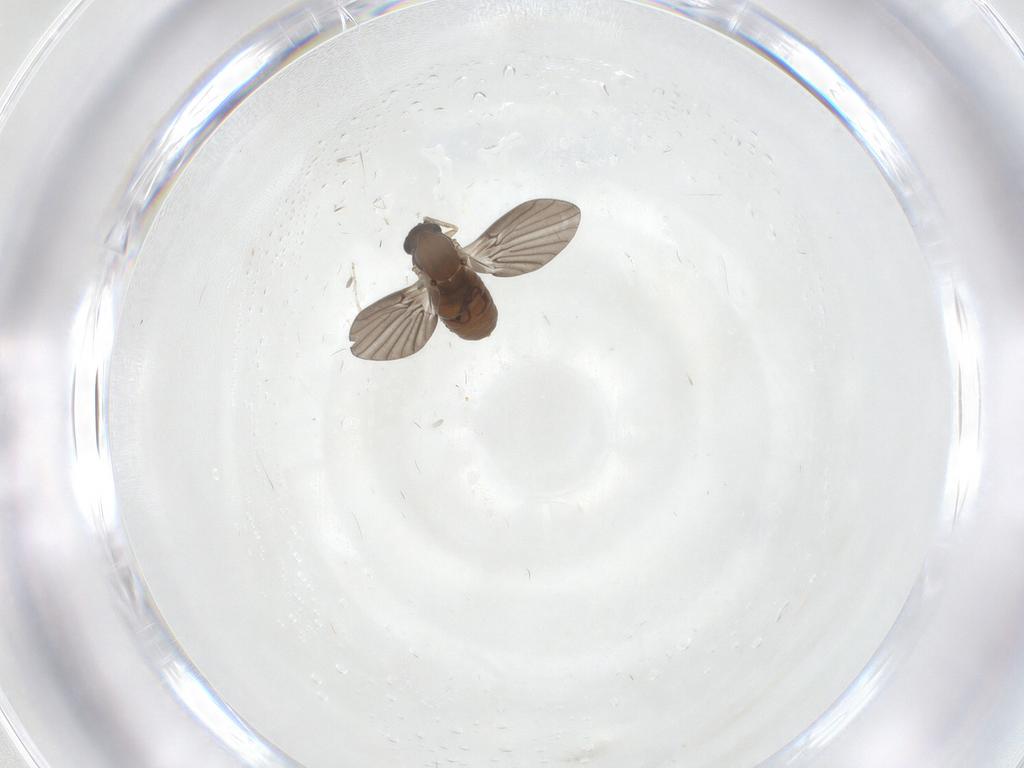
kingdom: Animalia
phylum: Arthropoda
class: Insecta
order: Diptera
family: Psychodidae
